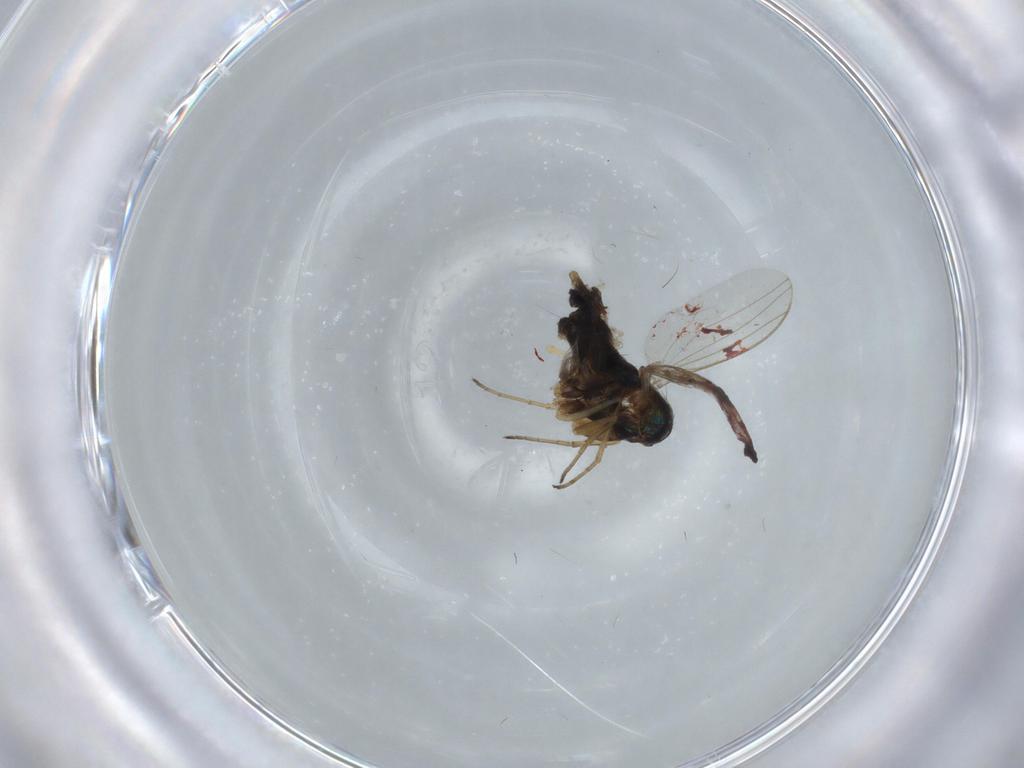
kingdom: Animalia
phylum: Arthropoda
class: Insecta
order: Diptera
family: Cecidomyiidae
